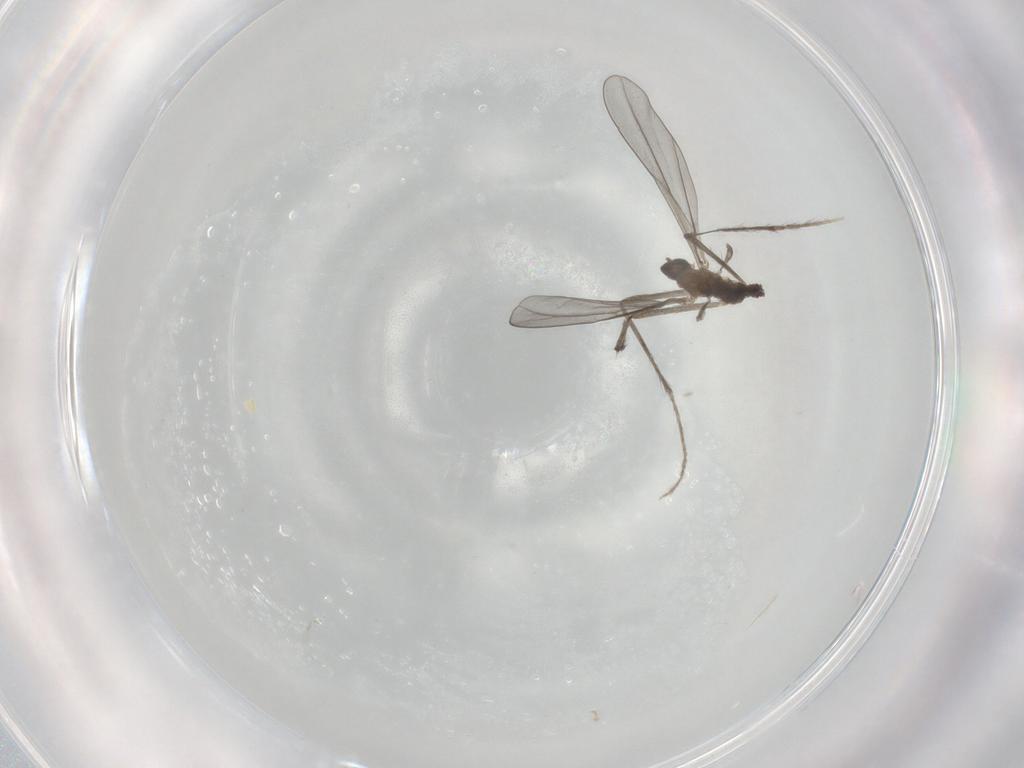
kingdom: Animalia
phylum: Arthropoda
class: Insecta
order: Diptera
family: Cecidomyiidae
